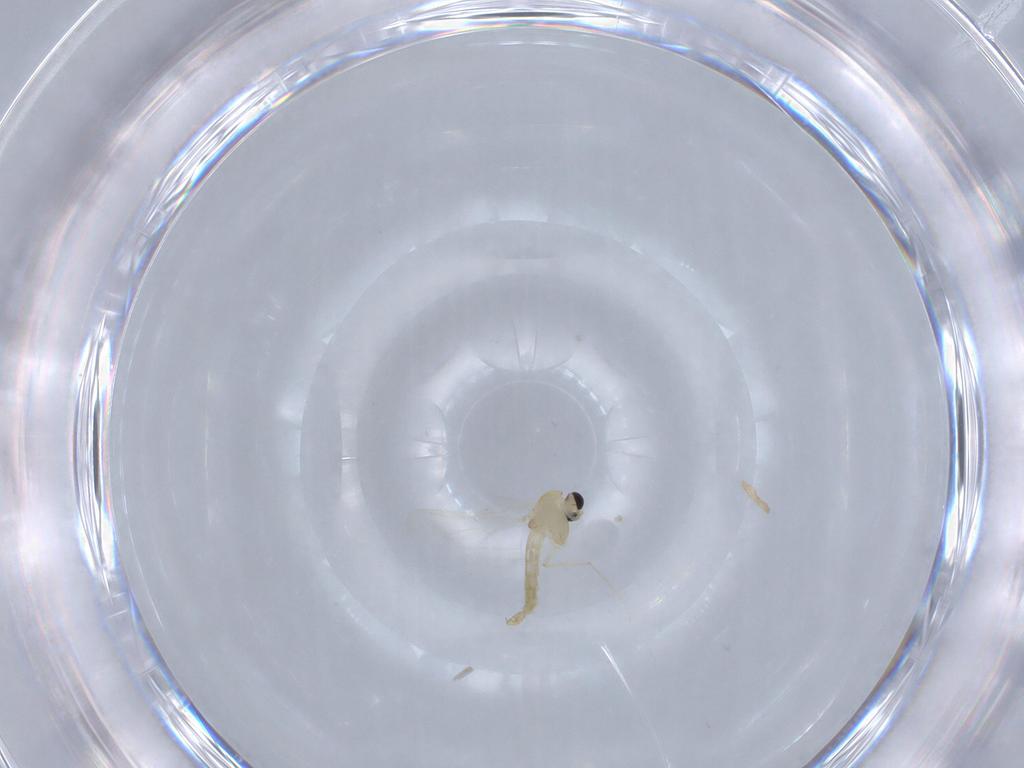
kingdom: Animalia
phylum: Arthropoda
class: Insecta
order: Diptera
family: Chironomidae
